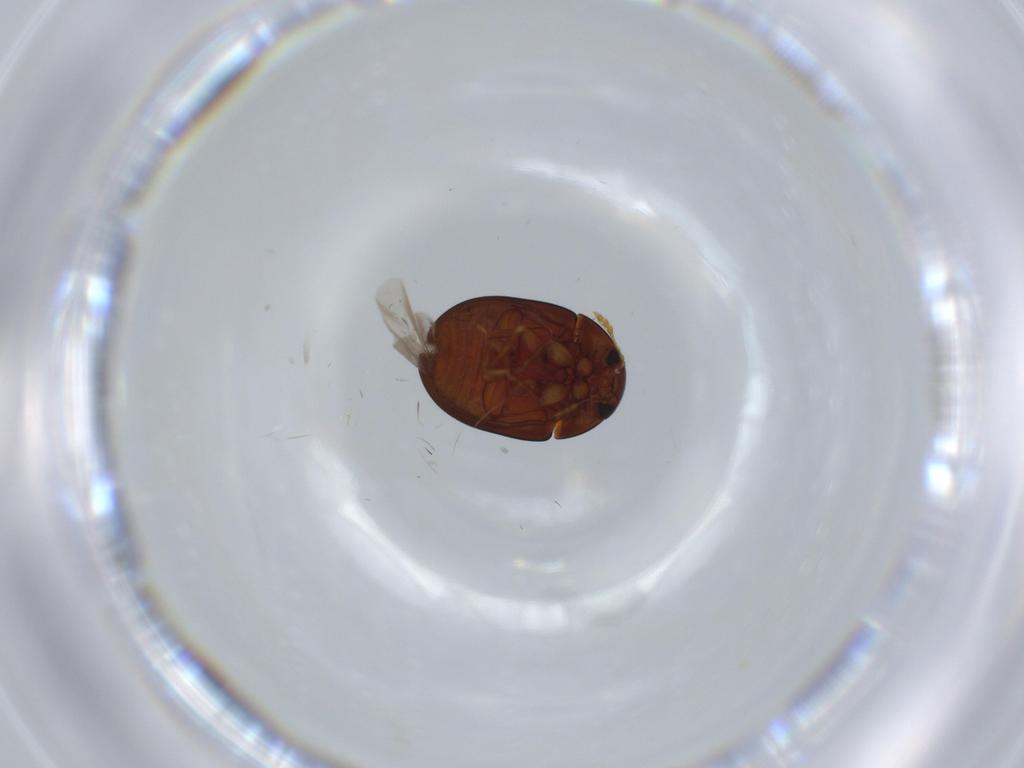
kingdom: Animalia
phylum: Arthropoda
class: Insecta
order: Coleoptera
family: Phalacridae
